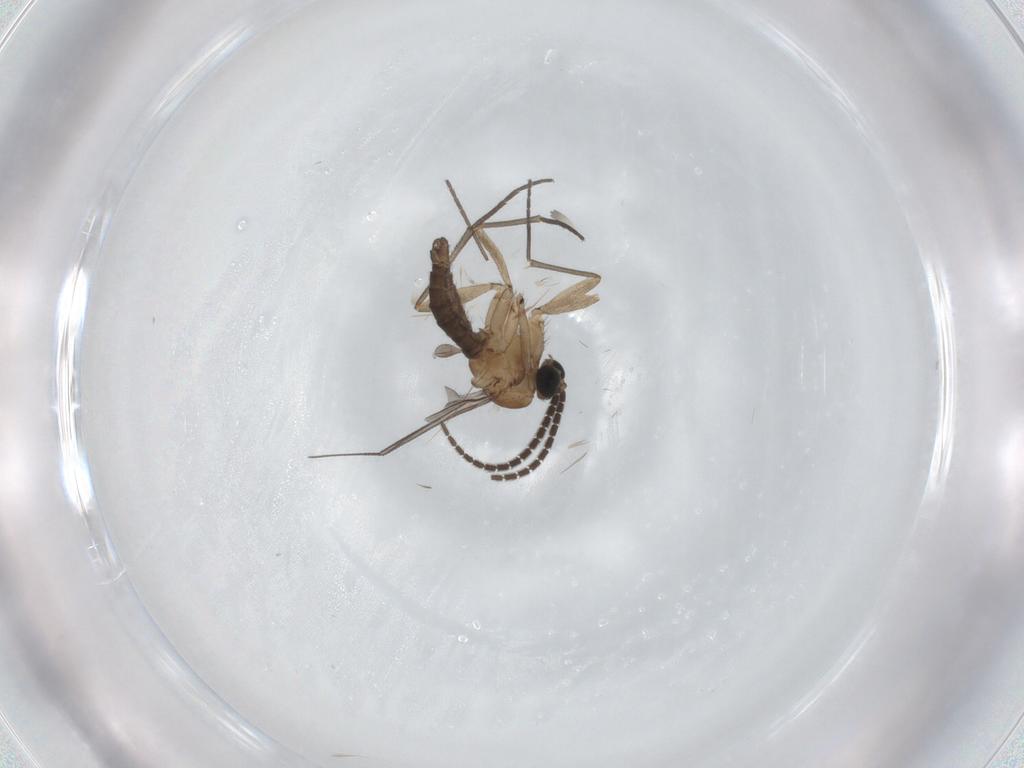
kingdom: Animalia
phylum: Arthropoda
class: Insecta
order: Diptera
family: Sciaridae
